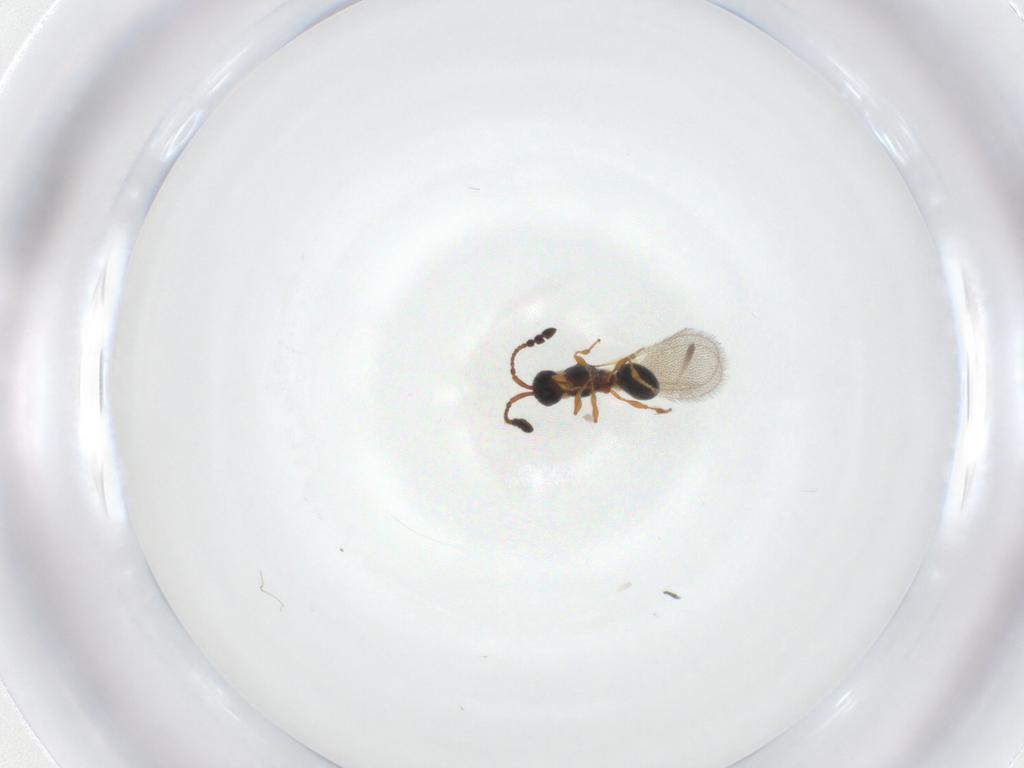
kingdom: Animalia
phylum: Arthropoda
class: Insecta
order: Hymenoptera
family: Diapriidae
